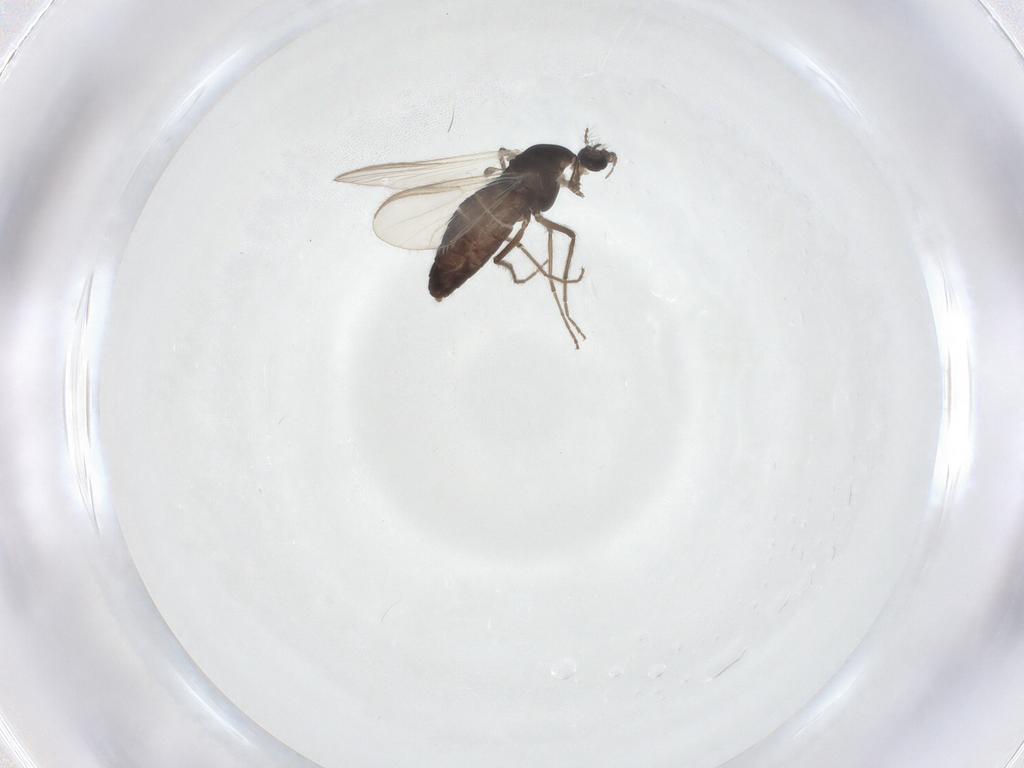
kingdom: Animalia
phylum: Arthropoda
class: Insecta
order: Diptera
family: Chironomidae
